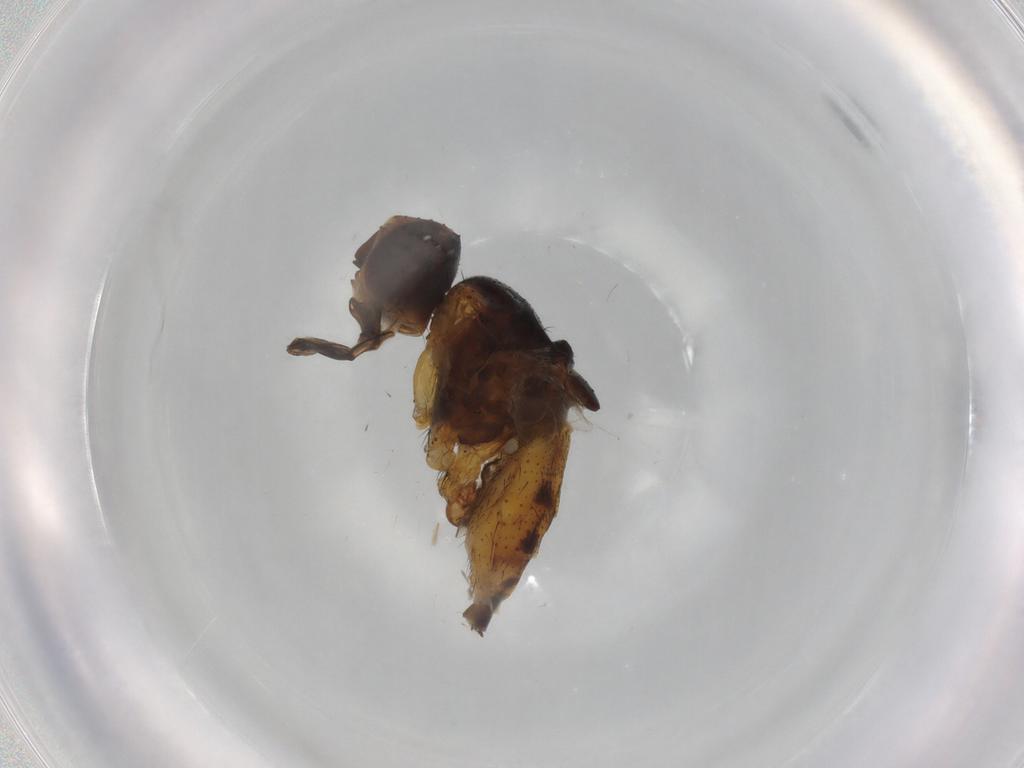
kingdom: Animalia
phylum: Arthropoda
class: Insecta
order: Diptera
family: Muscidae
